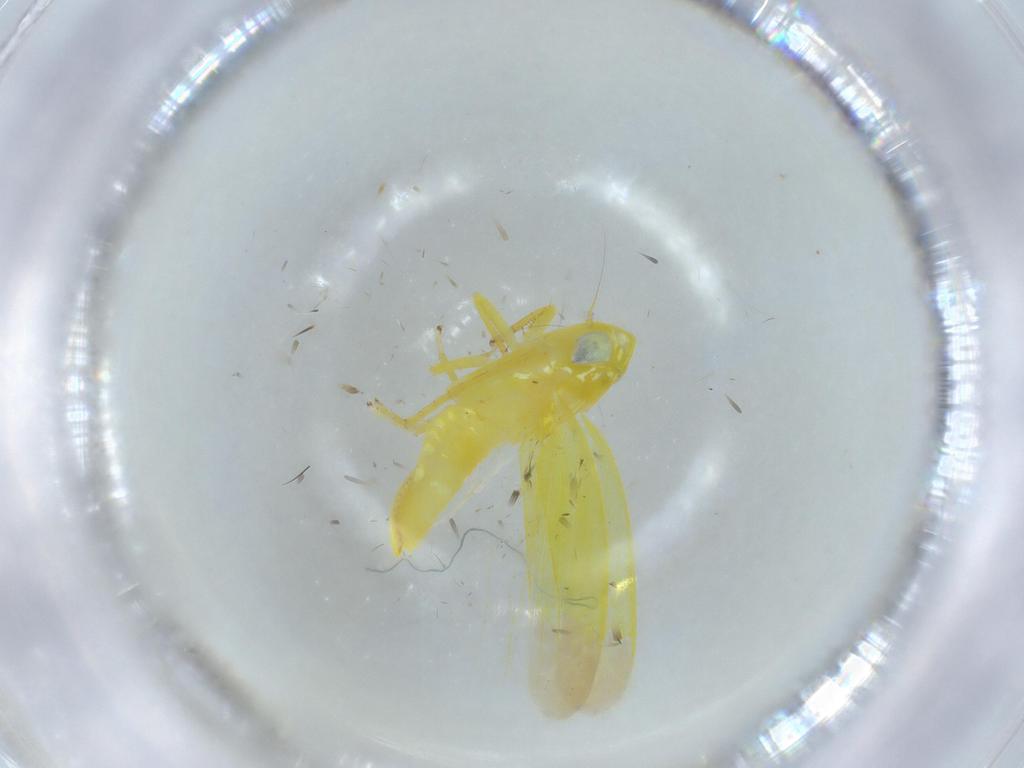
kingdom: Animalia
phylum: Arthropoda
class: Insecta
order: Hemiptera
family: Cicadellidae
